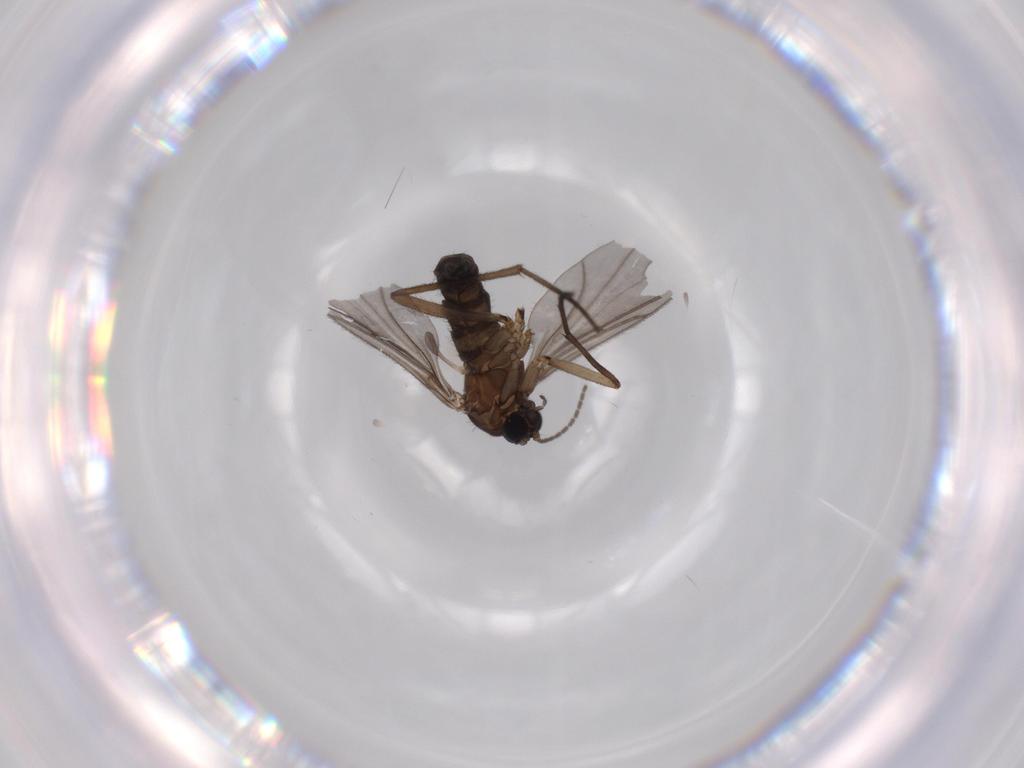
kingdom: Animalia
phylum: Arthropoda
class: Insecta
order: Diptera
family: Sciaridae
